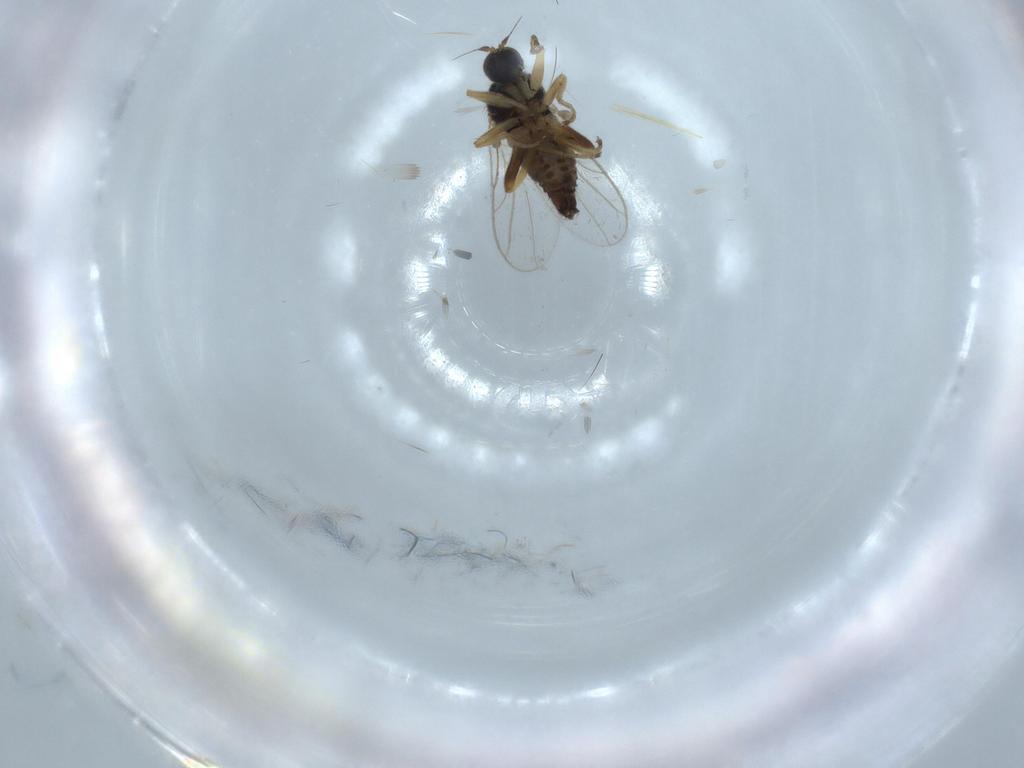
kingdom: Animalia
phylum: Arthropoda
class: Insecta
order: Diptera
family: Hybotidae
